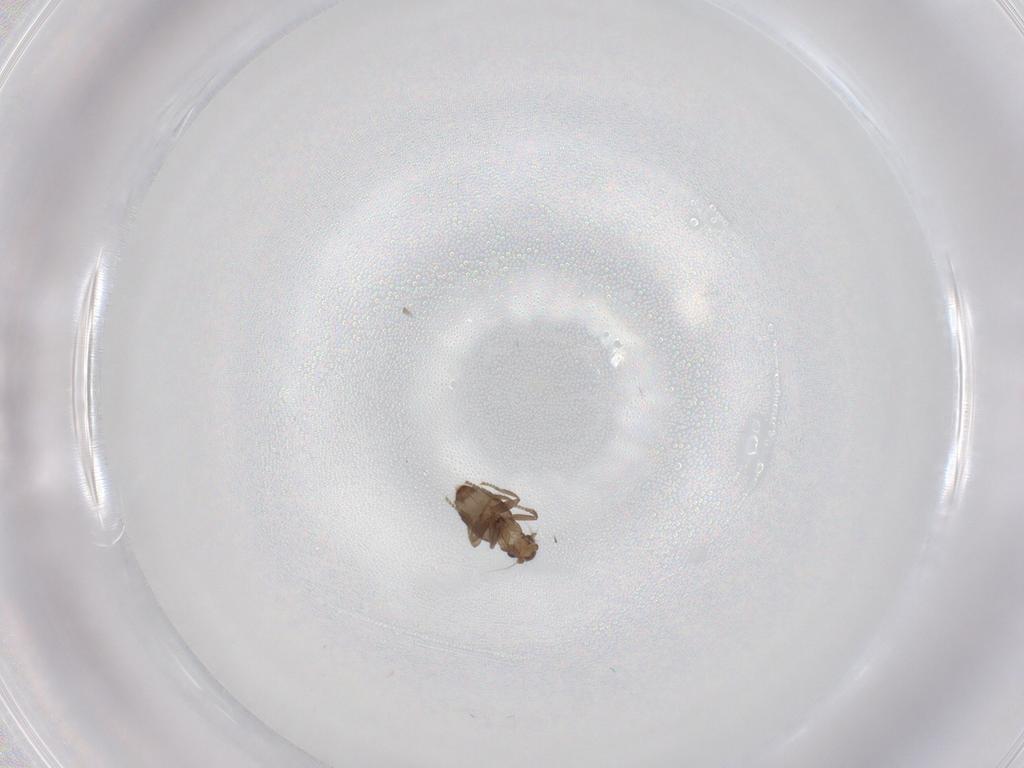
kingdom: Animalia
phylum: Arthropoda
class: Insecta
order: Diptera
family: Phoridae
